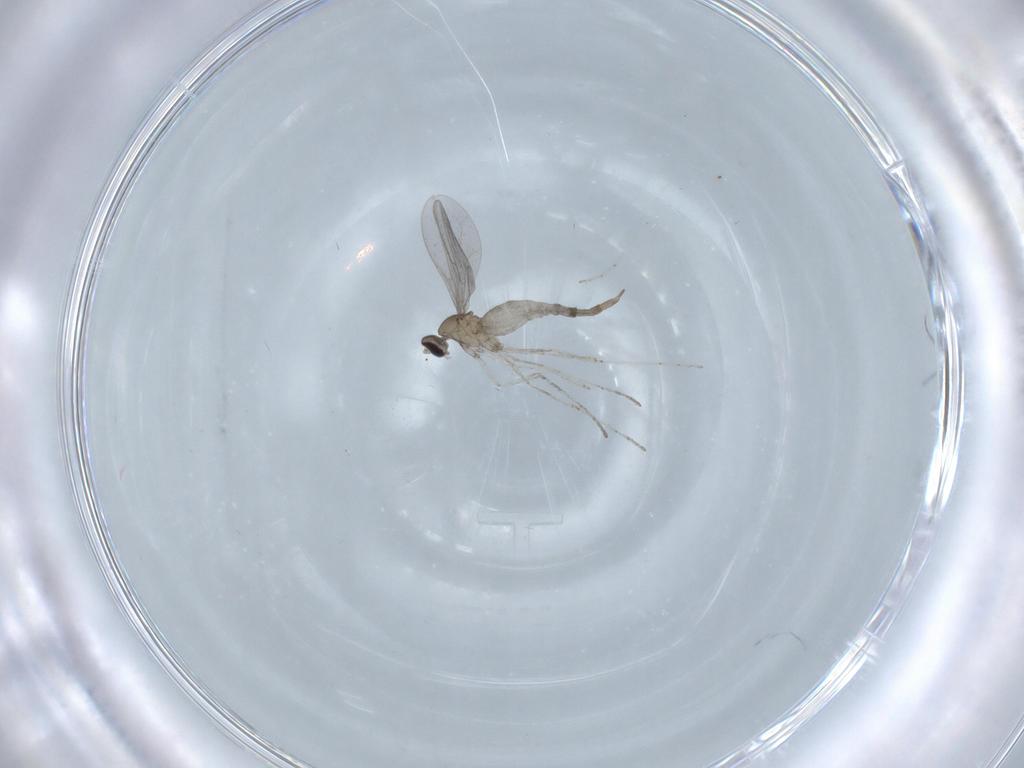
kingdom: Animalia
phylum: Arthropoda
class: Insecta
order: Diptera
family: Cecidomyiidae
